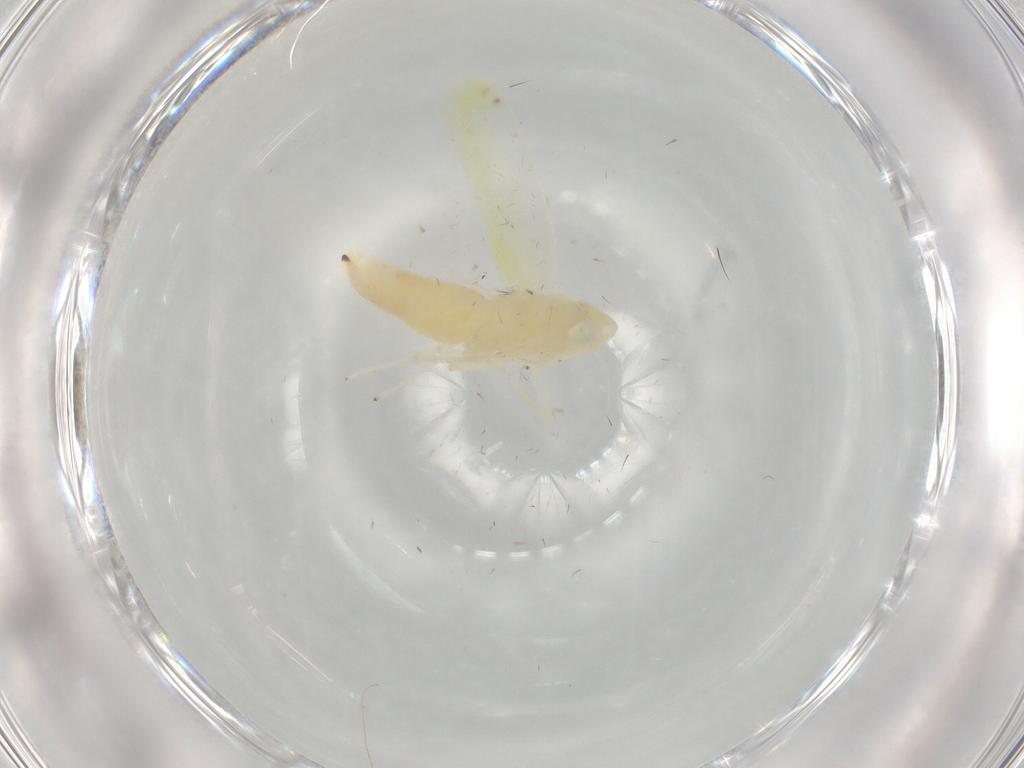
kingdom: Animalia
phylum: Arthropoda
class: Insecta
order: Hemiptera
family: Cicadellidae
